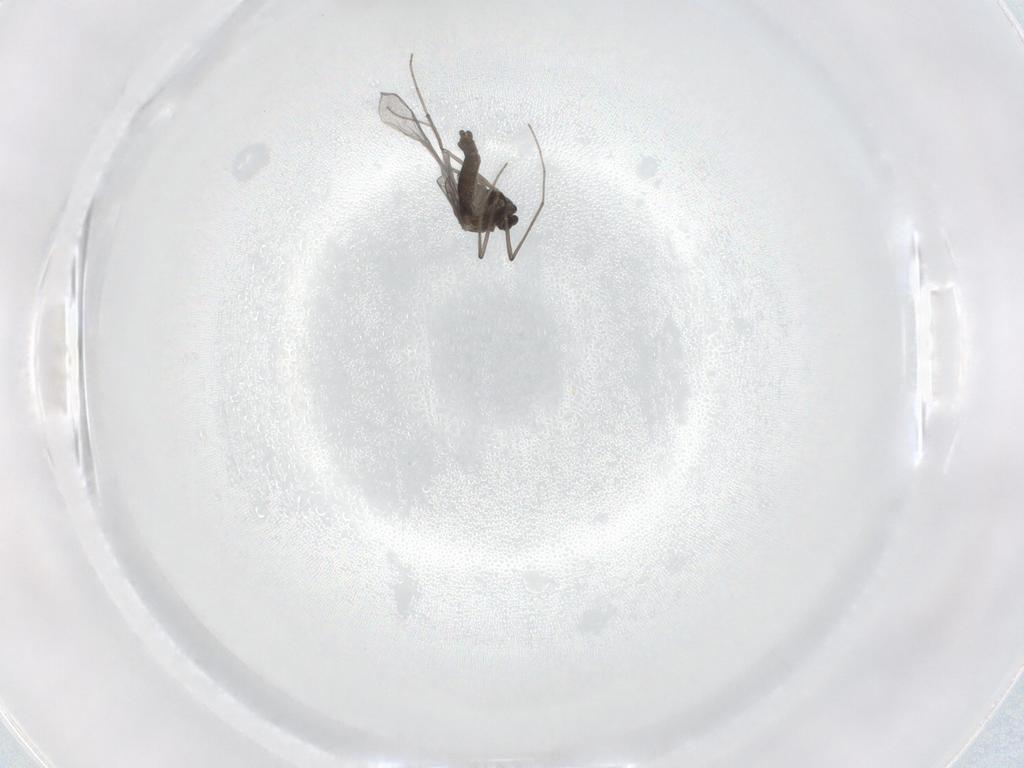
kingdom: Animalia
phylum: Arthropoda
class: Insecta
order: Diptera
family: Chironomidae
